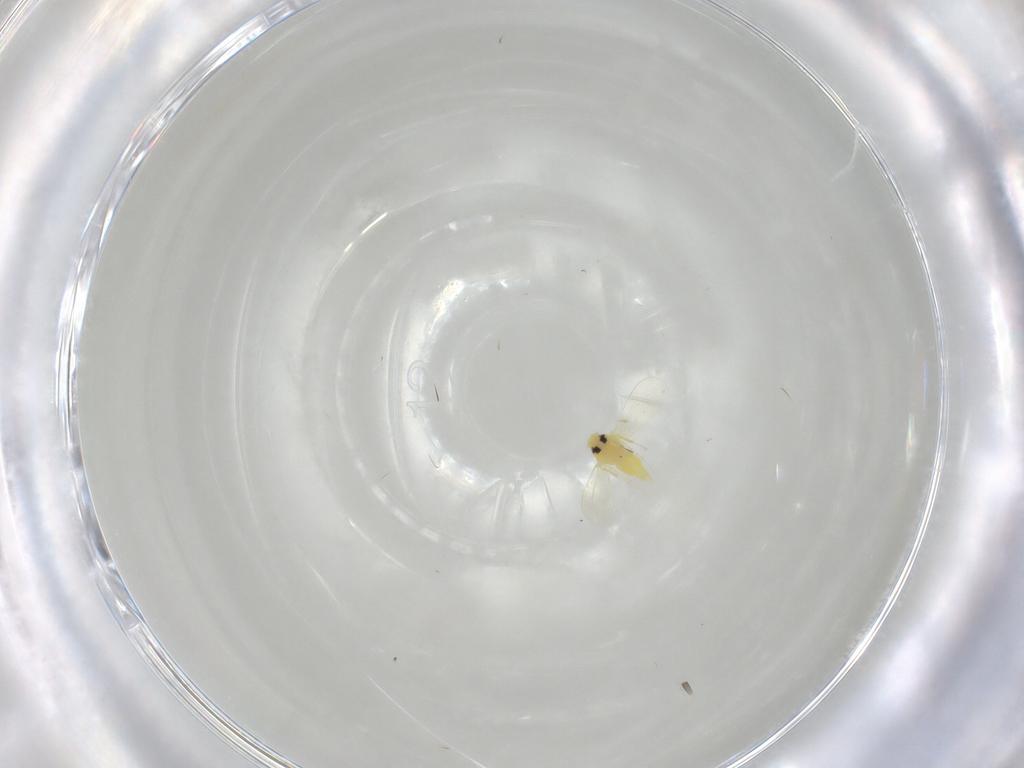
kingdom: Animalia
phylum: Arthropoda
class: Insecta
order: Hemiptera
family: Aleyrodidae
